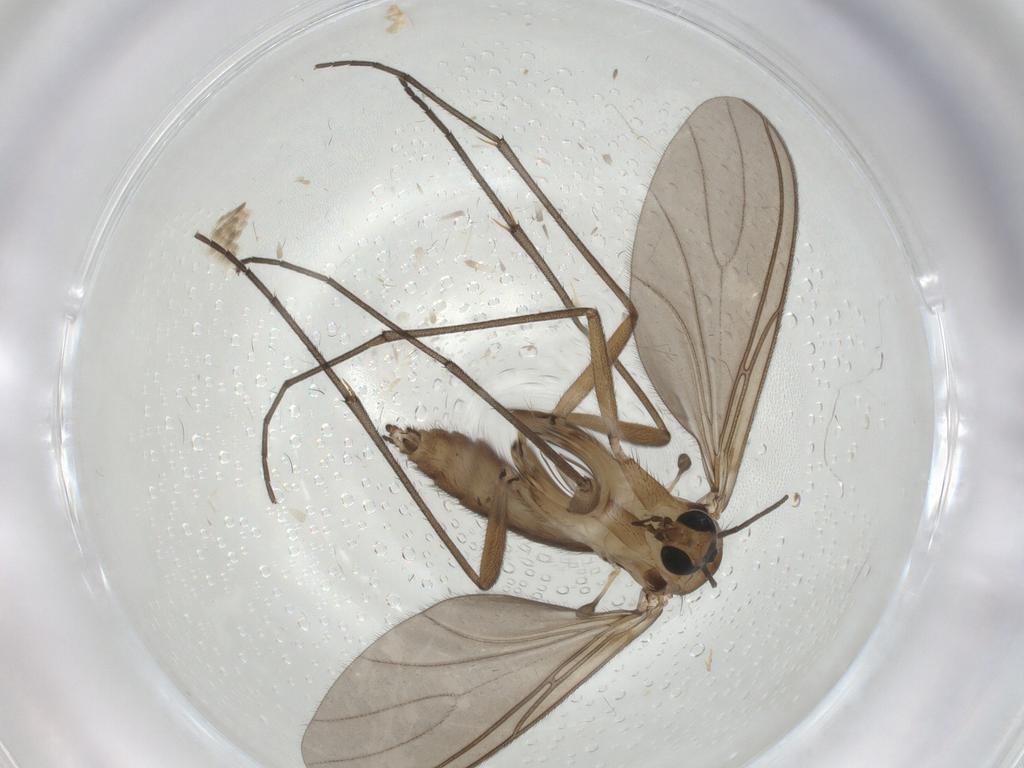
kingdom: Animalia
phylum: Arthropoda
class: Insecta
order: Diptera
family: Sciaridae
